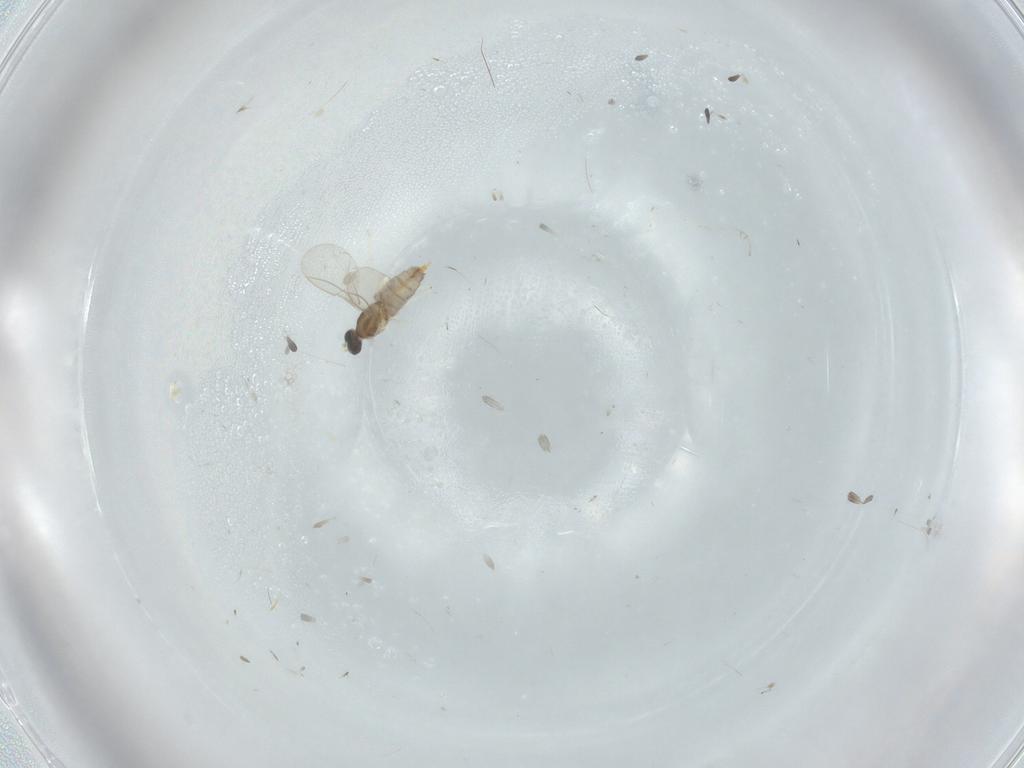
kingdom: Animalia
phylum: Arthropoda
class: Insecta
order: Diptera
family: Cecidomyiidae
